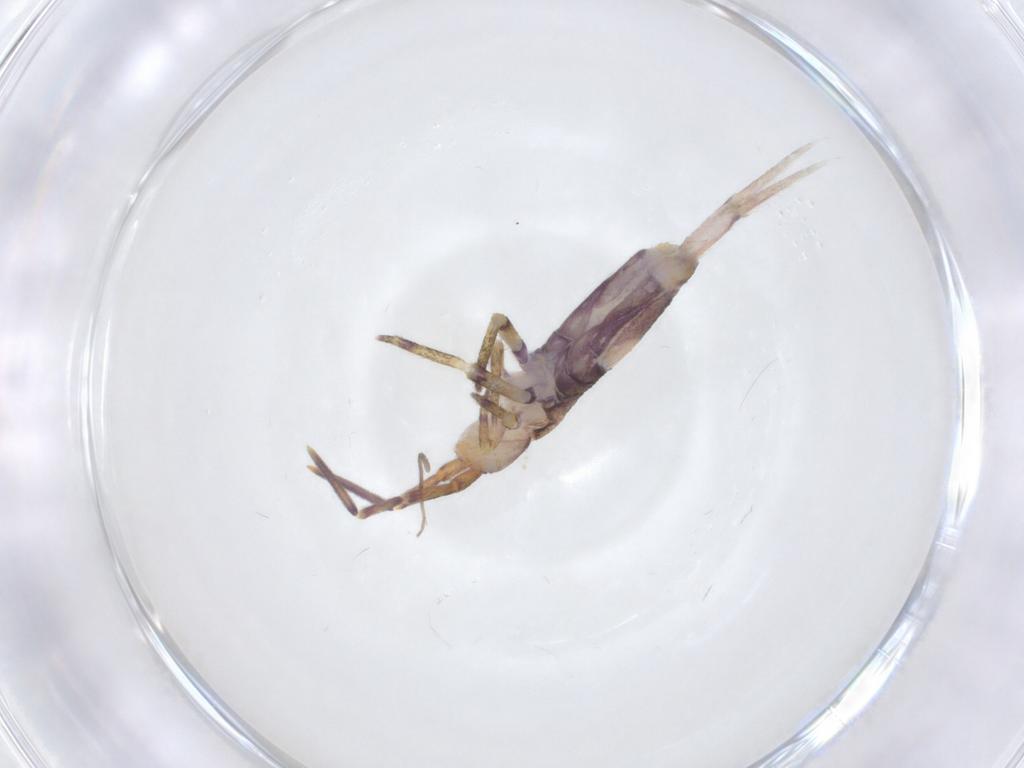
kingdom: Animalia
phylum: Arthropoda
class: Collembola
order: Entomobryomorpha
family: Entomobryidae
